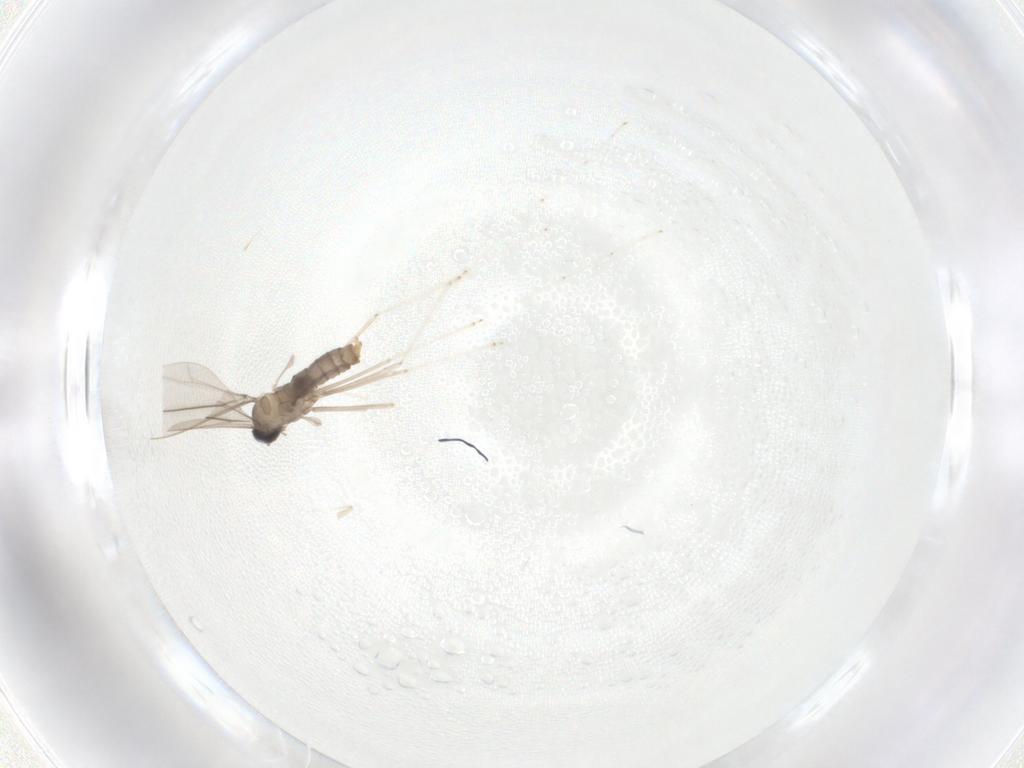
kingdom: Animalia
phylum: Arthropoda
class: Insecta
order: Diptera
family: Cecidomyiidae
